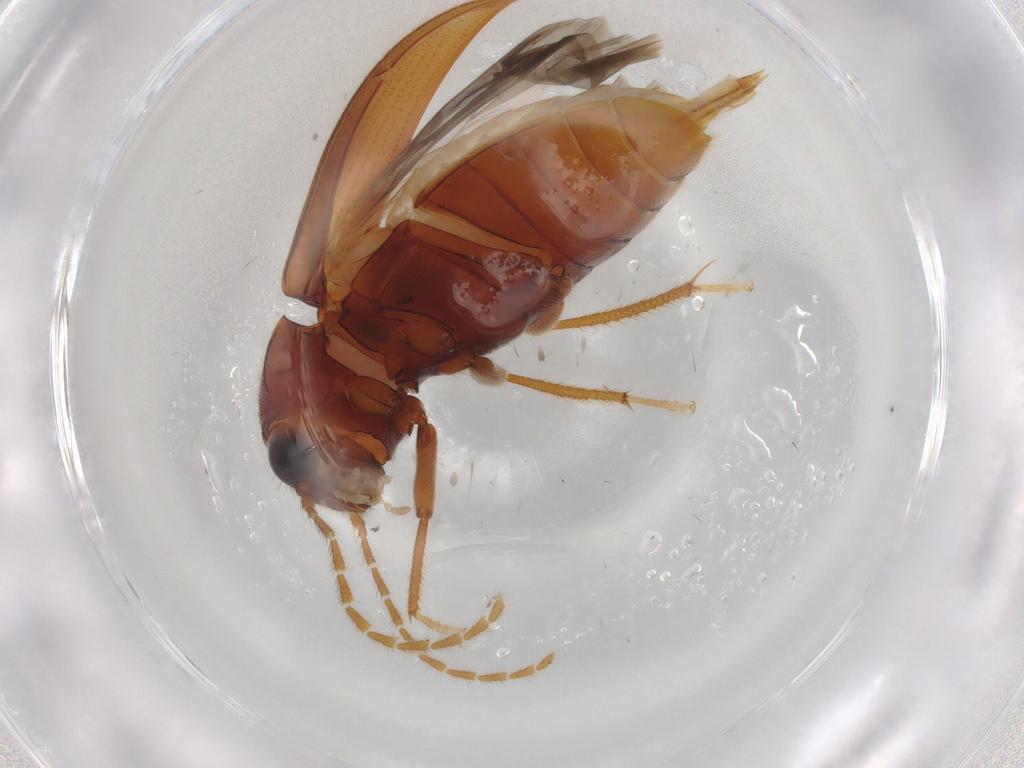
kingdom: Animalia
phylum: Arthropoda
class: Insecta
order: Coleoptera
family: Ptilodactylidae
